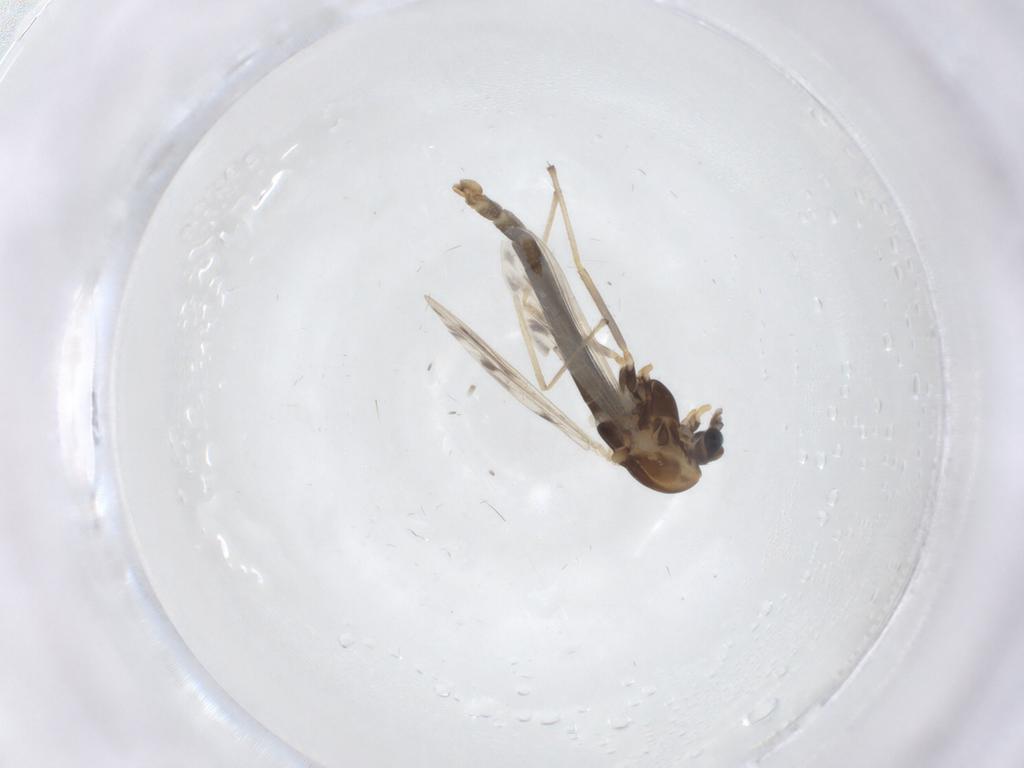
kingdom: Animalia
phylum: Arthropoda
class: Insecta
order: Diptera
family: Chironomidae
